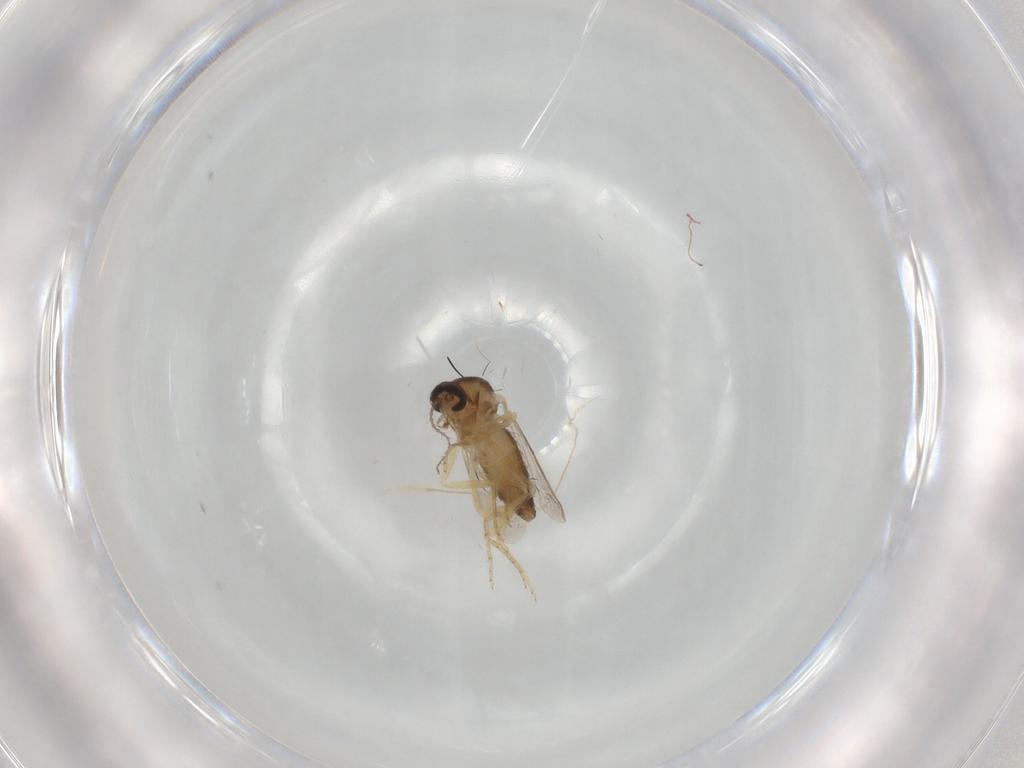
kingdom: Animalia
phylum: Arthropoda
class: Insecta
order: Diptera
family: Ceratopogonidae
